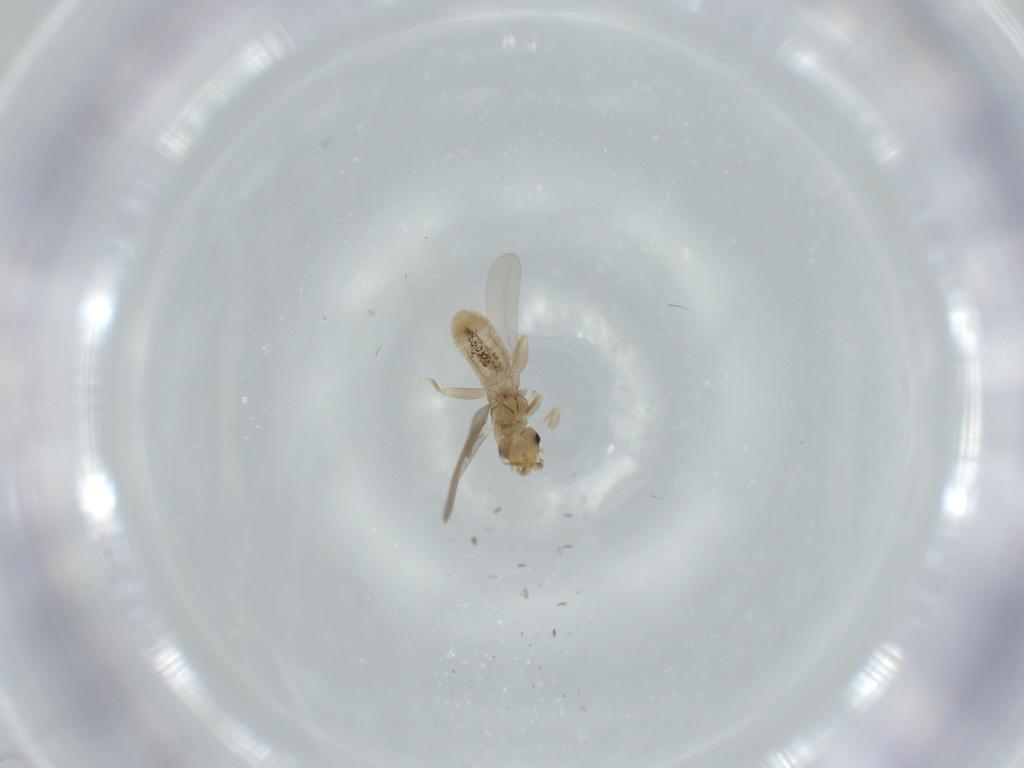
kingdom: Animalia
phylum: Arthropoda
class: Insecta
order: Psocodea
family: Liposcelididae
